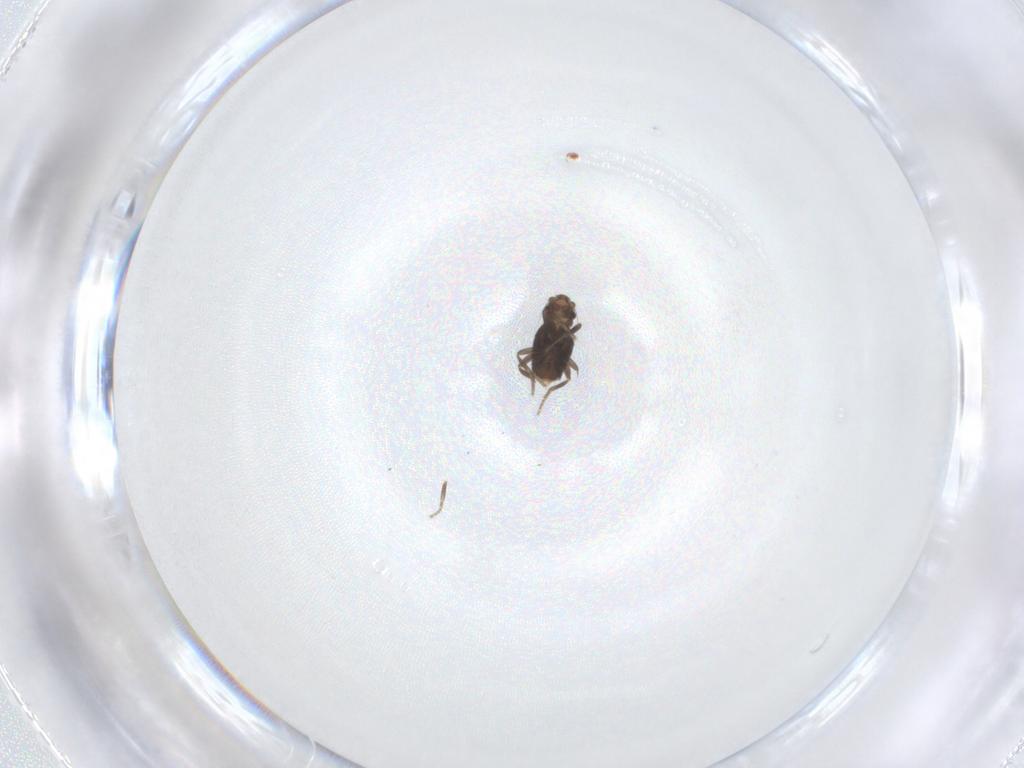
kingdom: Animalia
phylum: Arthropoda
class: Insecta
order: Diptera
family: Phoridae
